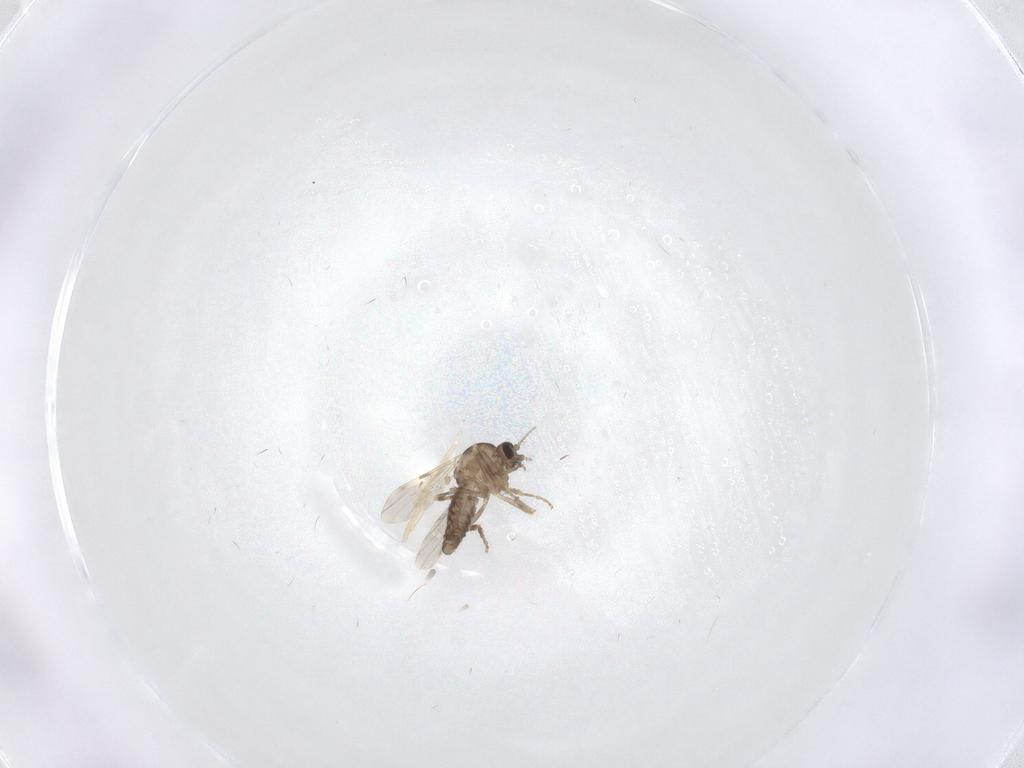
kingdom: Animalia
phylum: Arthropoda
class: Insecta
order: Diptera
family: Ceratopogonidae
